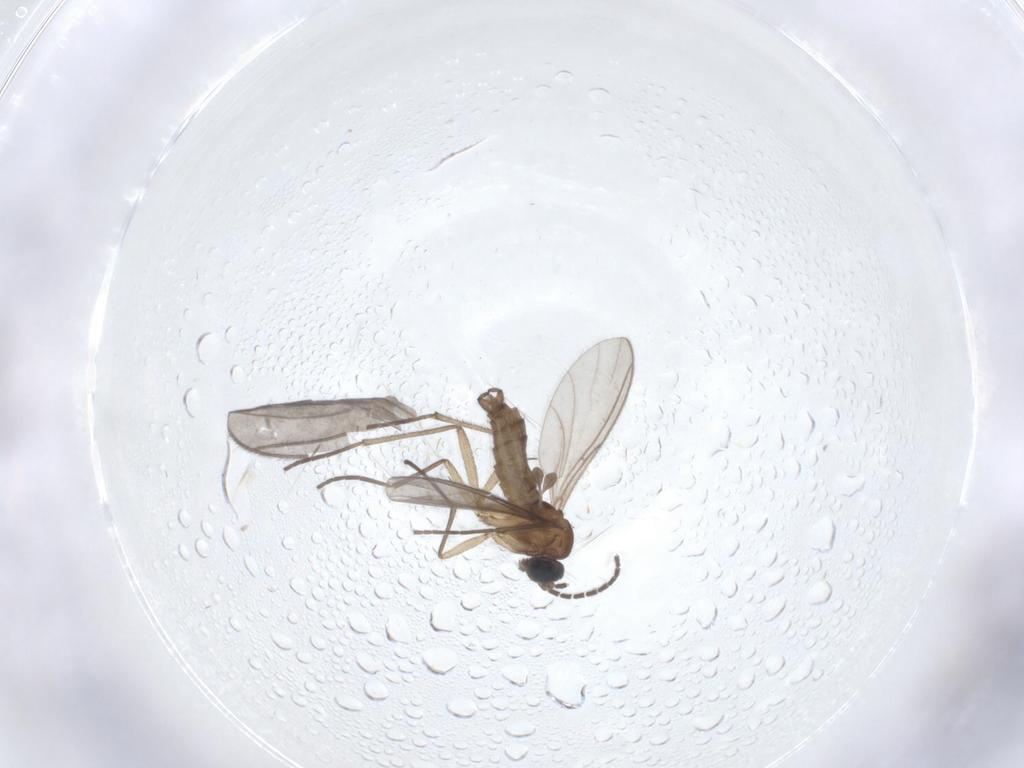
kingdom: Animalia
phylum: Arthropoda
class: Insecta
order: Diptera
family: Sciaridae
